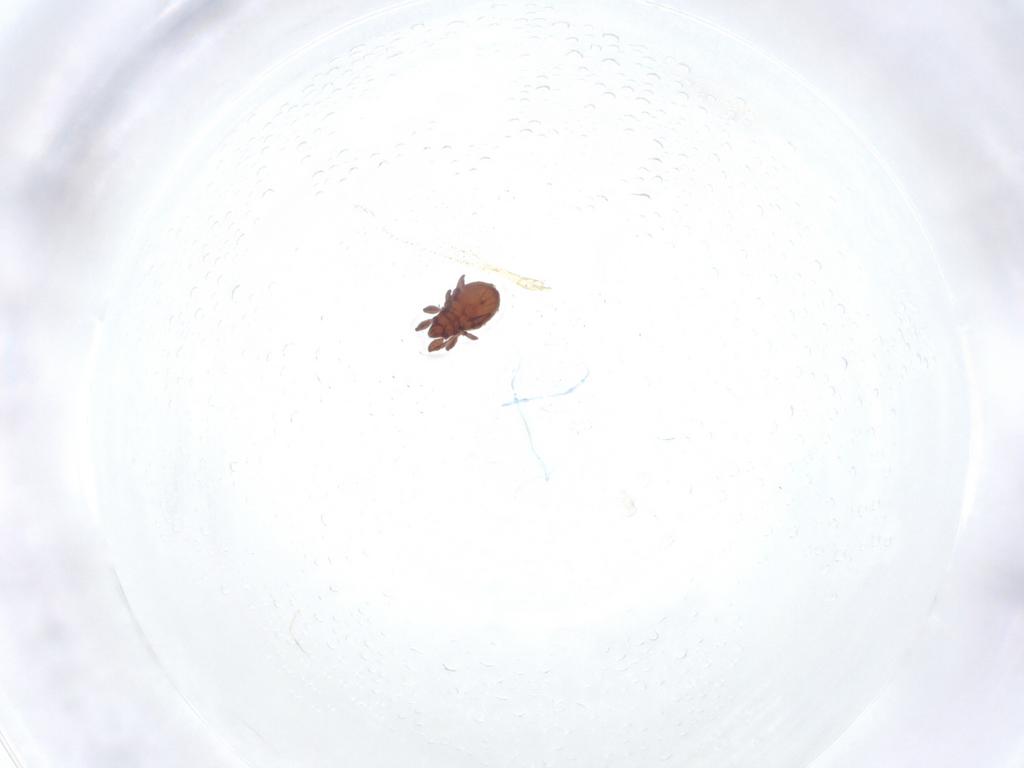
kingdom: Animalia
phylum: Arthropoda
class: Arachnida
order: Sarcoptiformes
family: Eremaeidae
